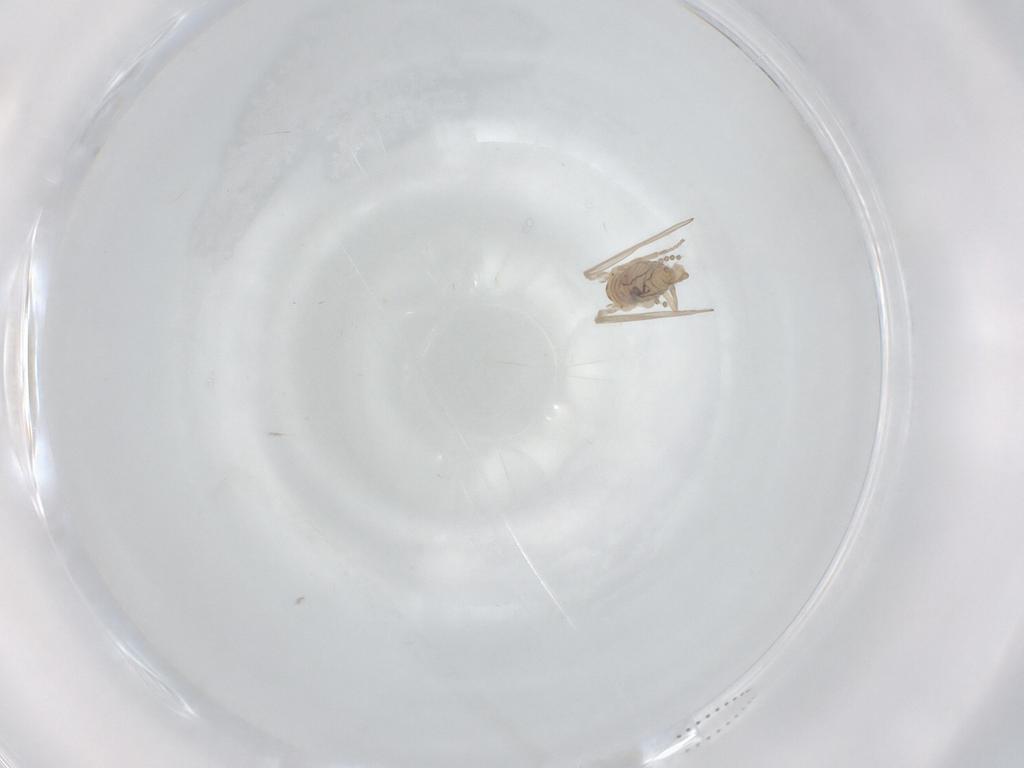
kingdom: Animalia
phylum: Arthropoda
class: Insecta
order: Diptera
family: Psychodidae
